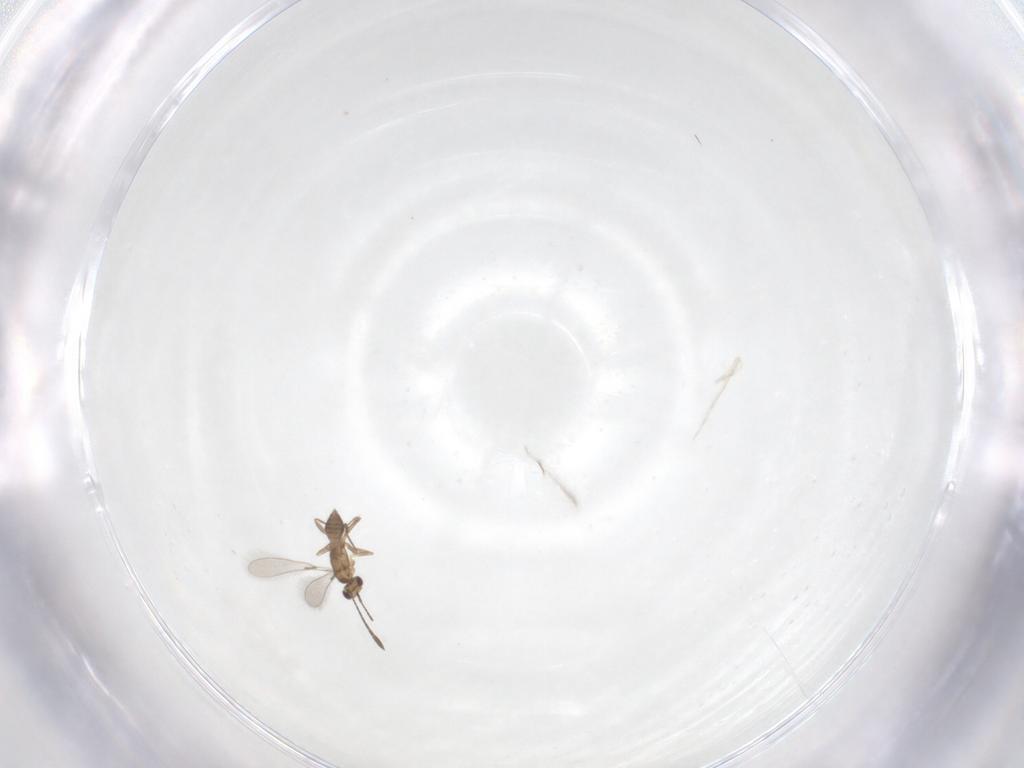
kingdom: Animalia
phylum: Arthropoda
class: Insecta
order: Hymenoptera
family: Mymaridae
